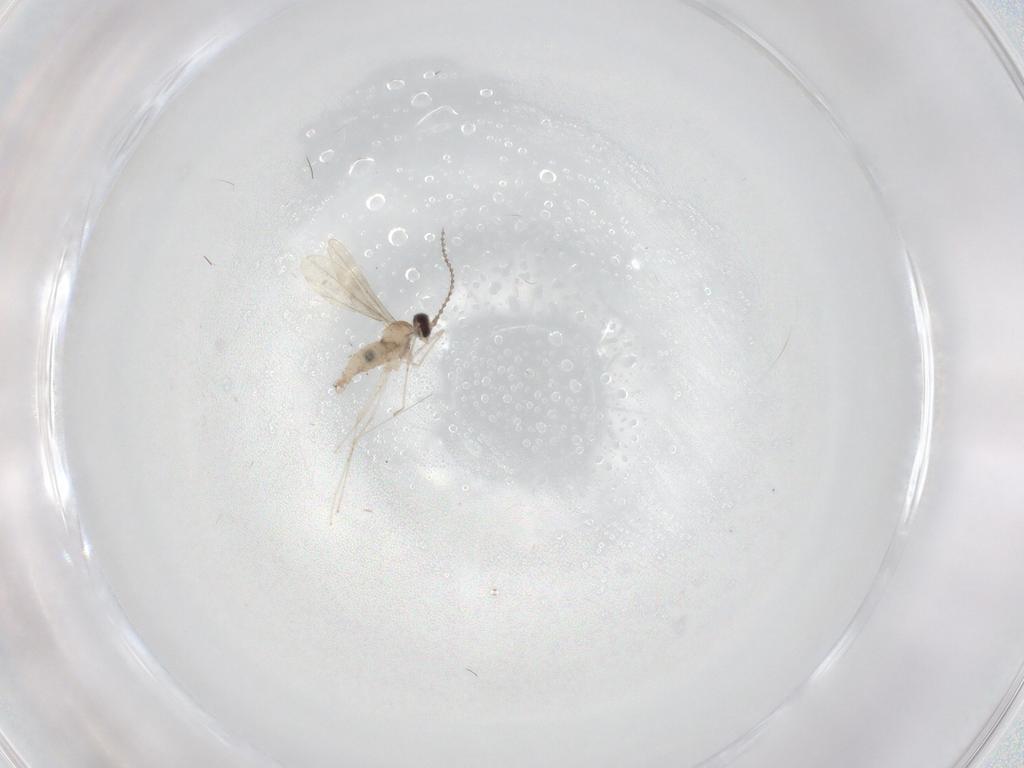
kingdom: Animalia
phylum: Arthropoda
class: Insecta
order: Diptera
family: Cecidomyiidae
